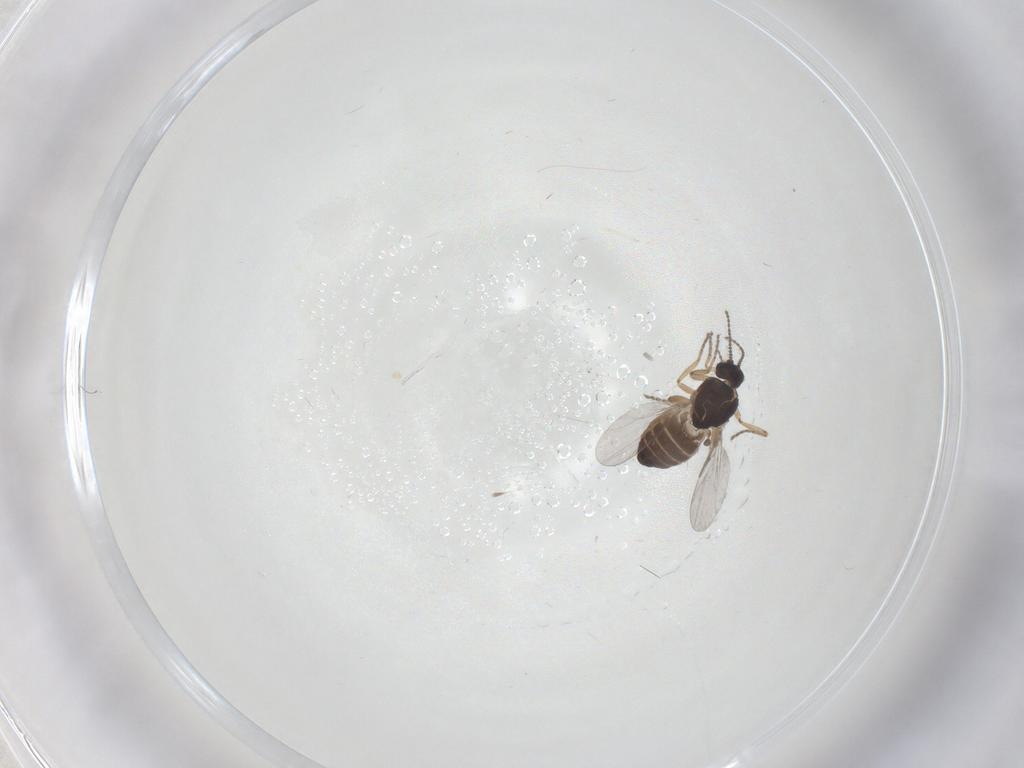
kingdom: Animalia
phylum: Arthropoda
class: Insecta
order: Diptera
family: Ceratopogonidae
